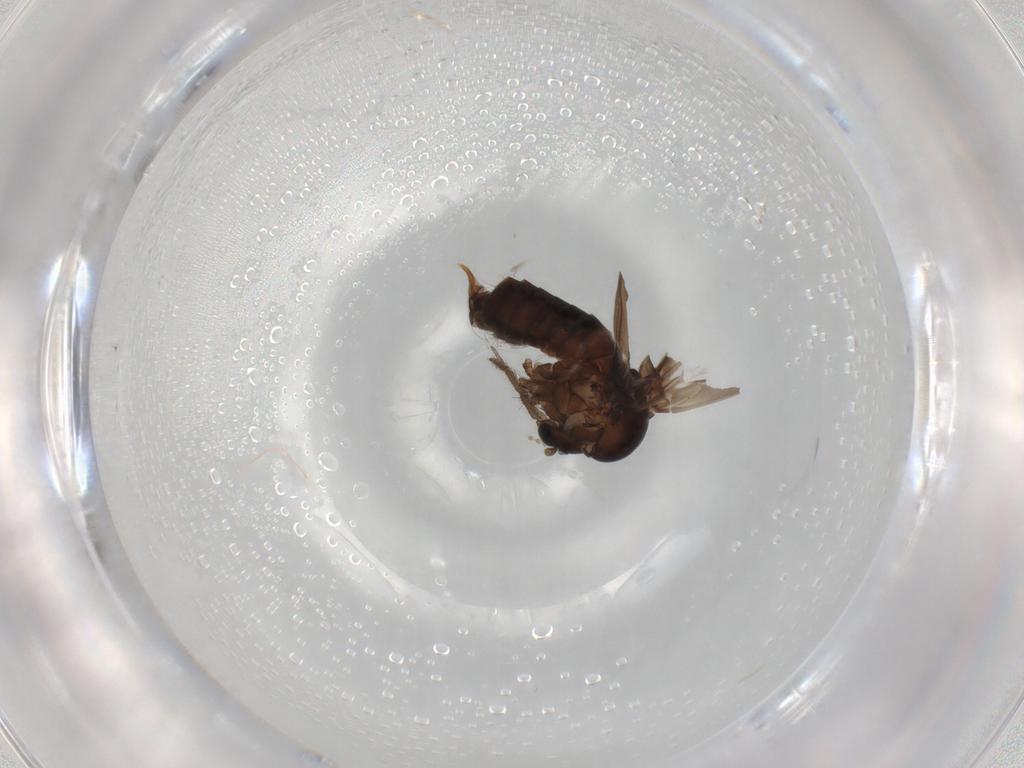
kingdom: Animalia
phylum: Arthropoda
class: Insecta
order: Diptera
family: Psychodidae
